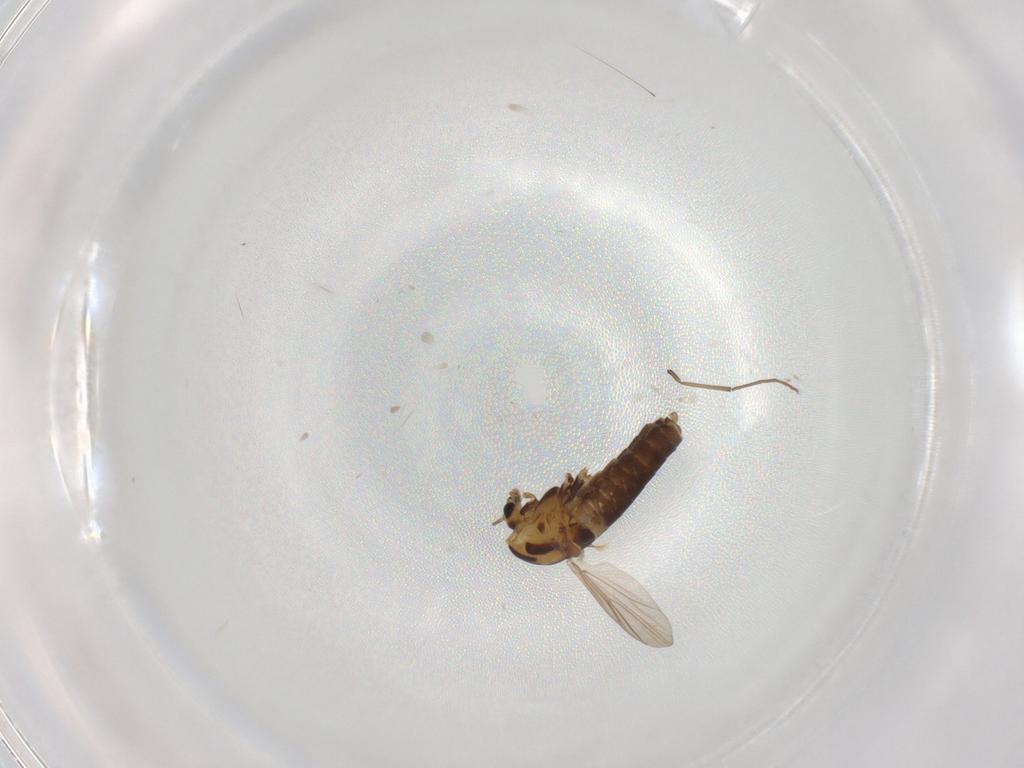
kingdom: Animalia
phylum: Arthropoda
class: Insecta
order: Diptera
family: Chironomidae
